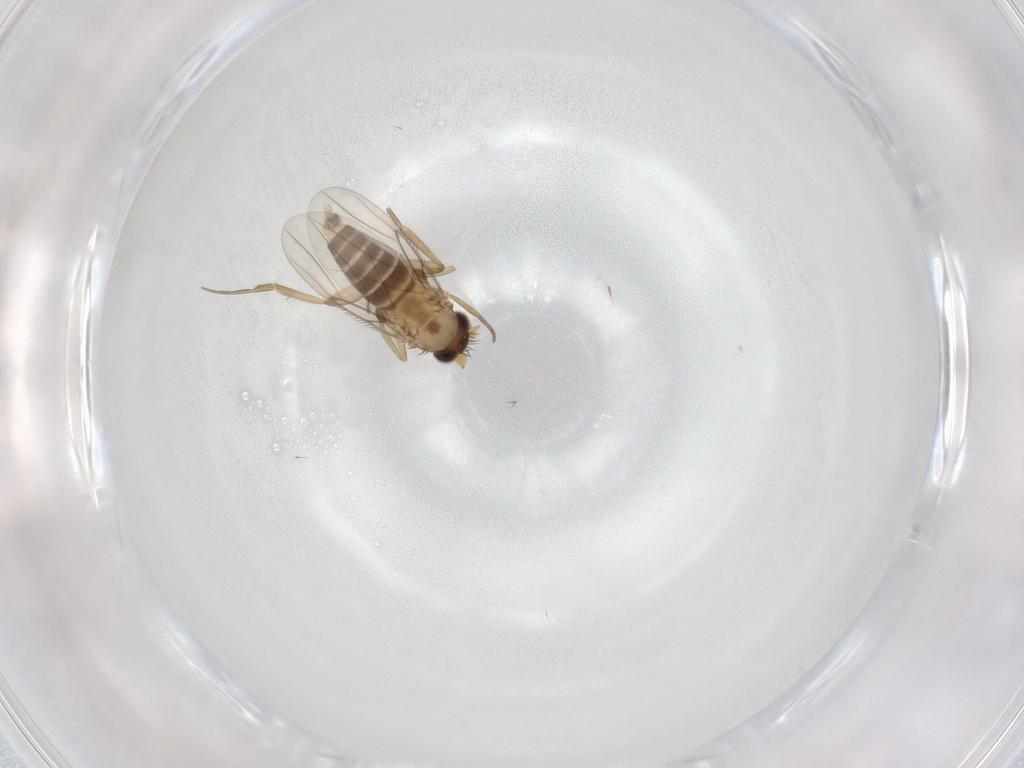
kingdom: Animalia
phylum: Arthropoda
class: Insecta
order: Diptera
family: Phoridae
